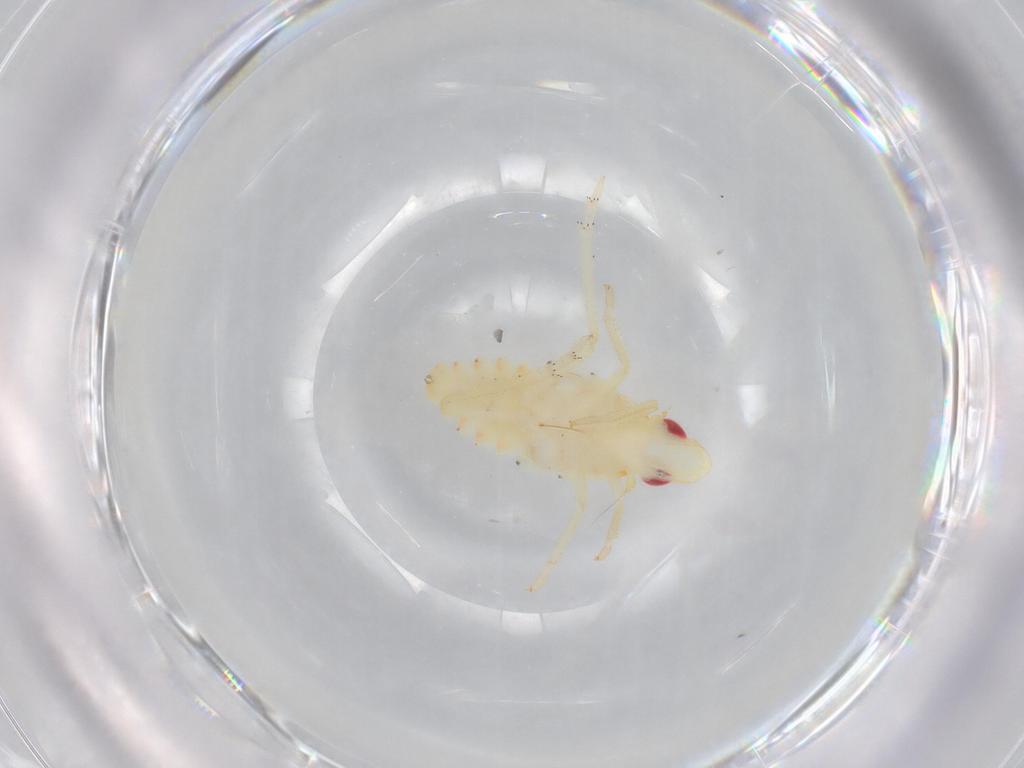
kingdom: Animalia
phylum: Arthropoda
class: Insecta
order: Hemiptera
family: Tropiduchidae
